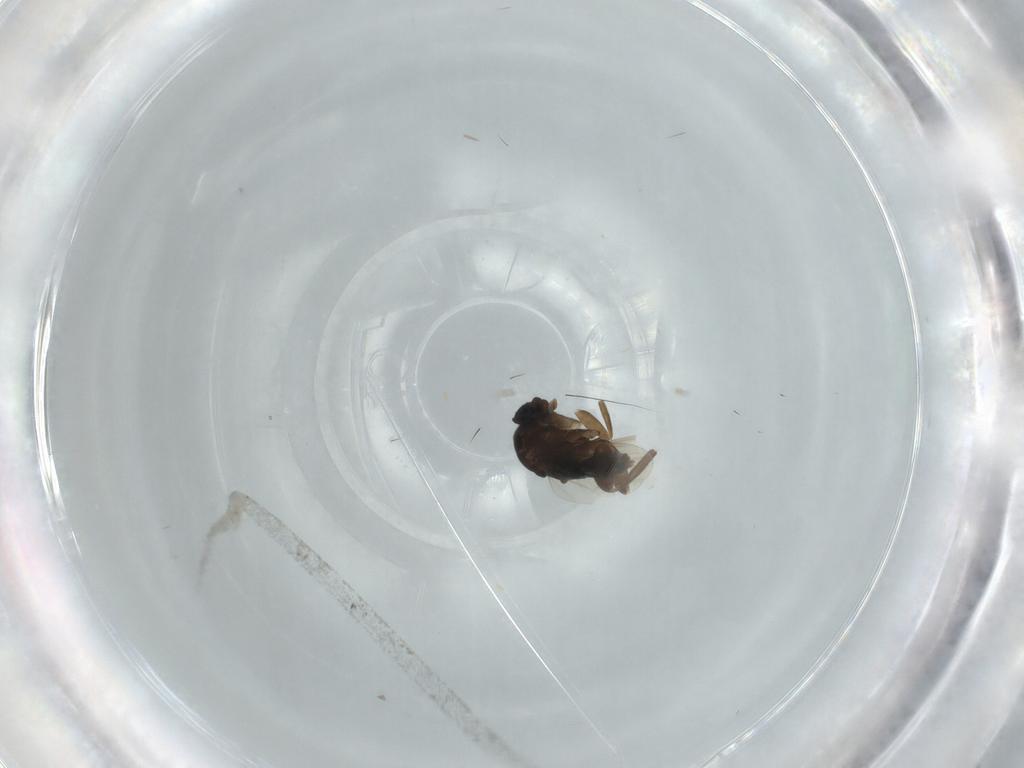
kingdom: Animalia
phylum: Arthropoda
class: Insecta
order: Diptera
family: Phoridae
